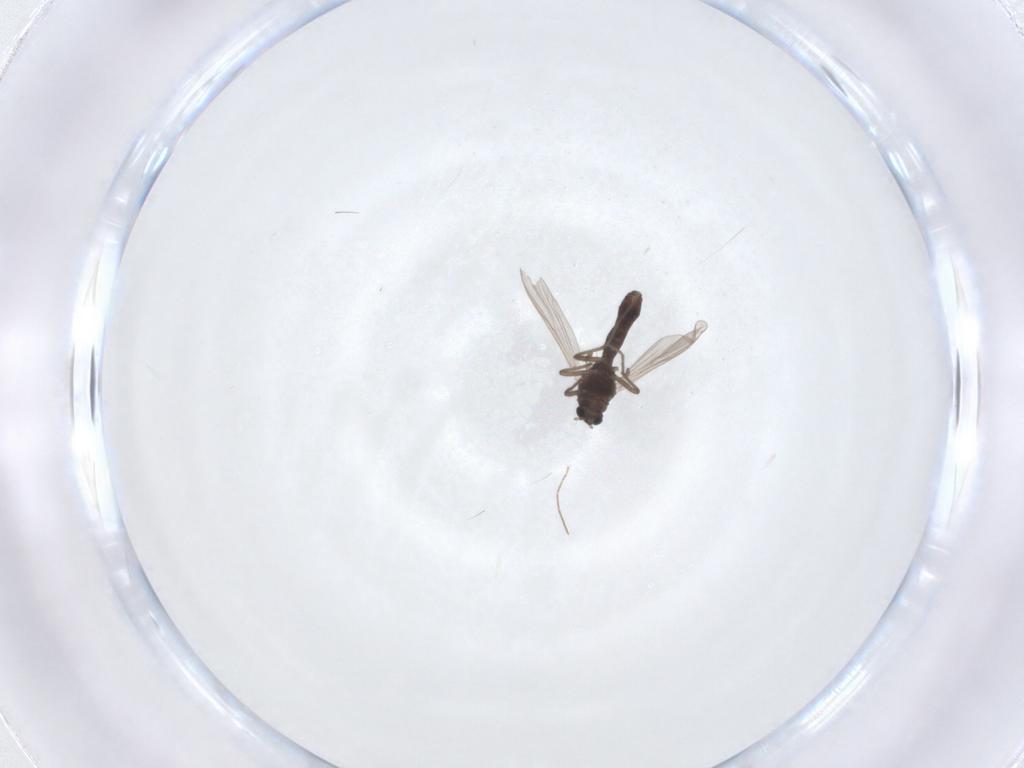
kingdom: Animalia
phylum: Arthropoda
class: Insecta
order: Diptera
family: Chironomidae
